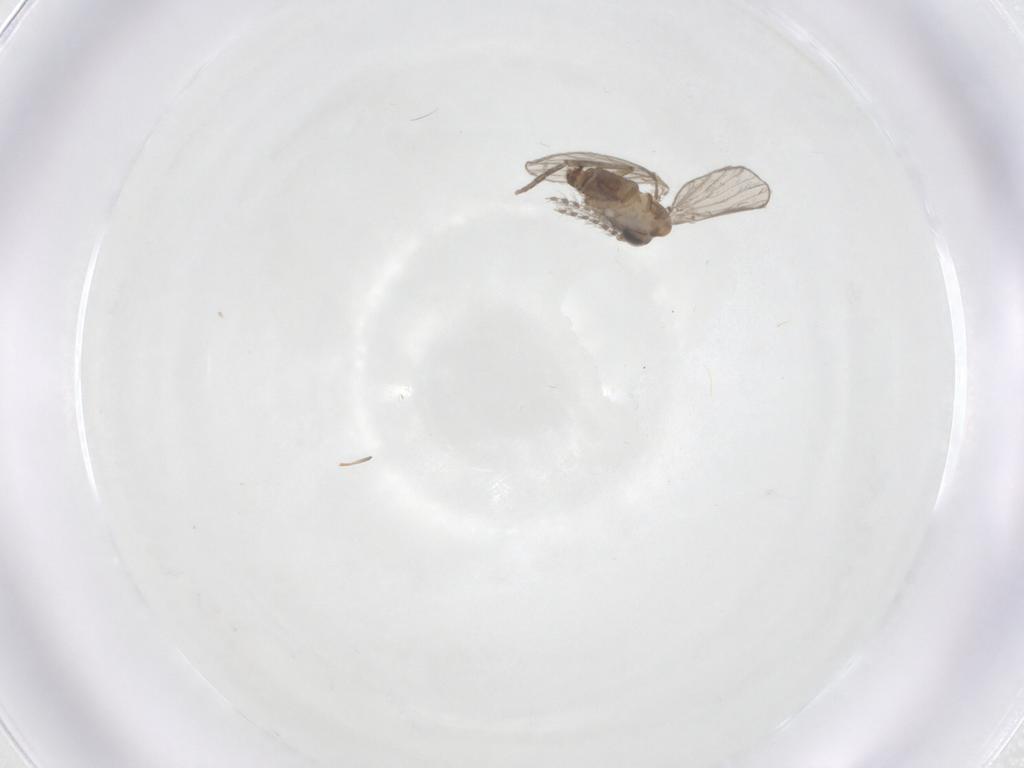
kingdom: Animalia
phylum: Arthropoda
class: Insecta
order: Diptera
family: Psychodidae
